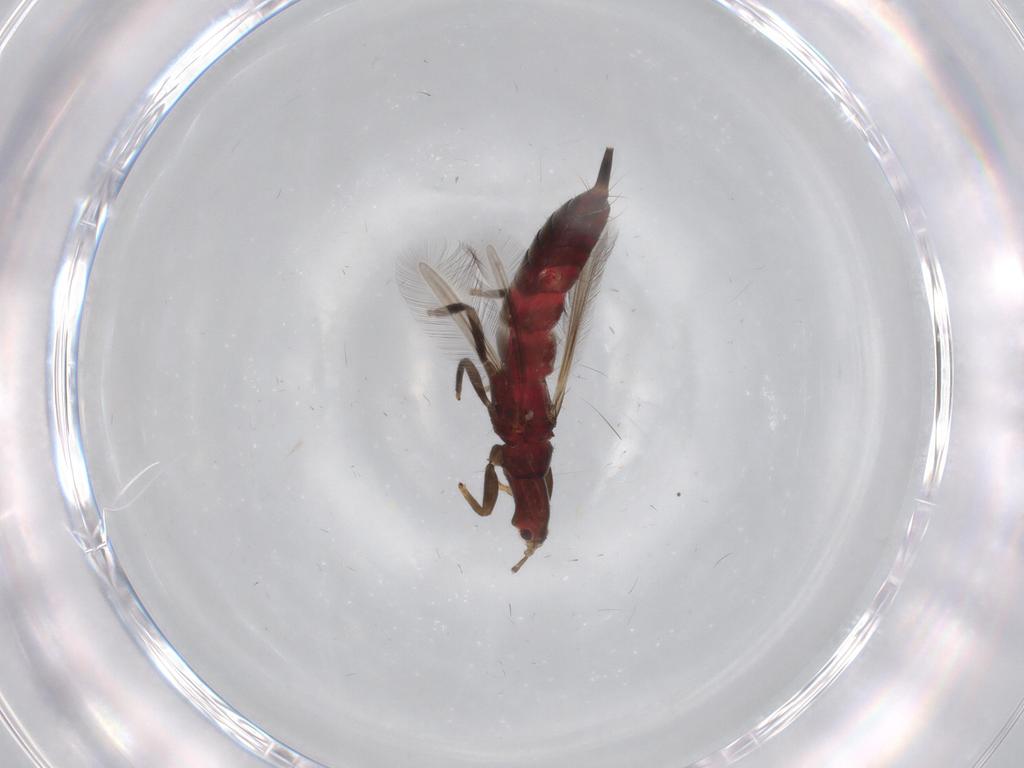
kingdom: Animalia
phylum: Arthropoda
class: Insecta
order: Thysanoptera
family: Phlaeothripidae
